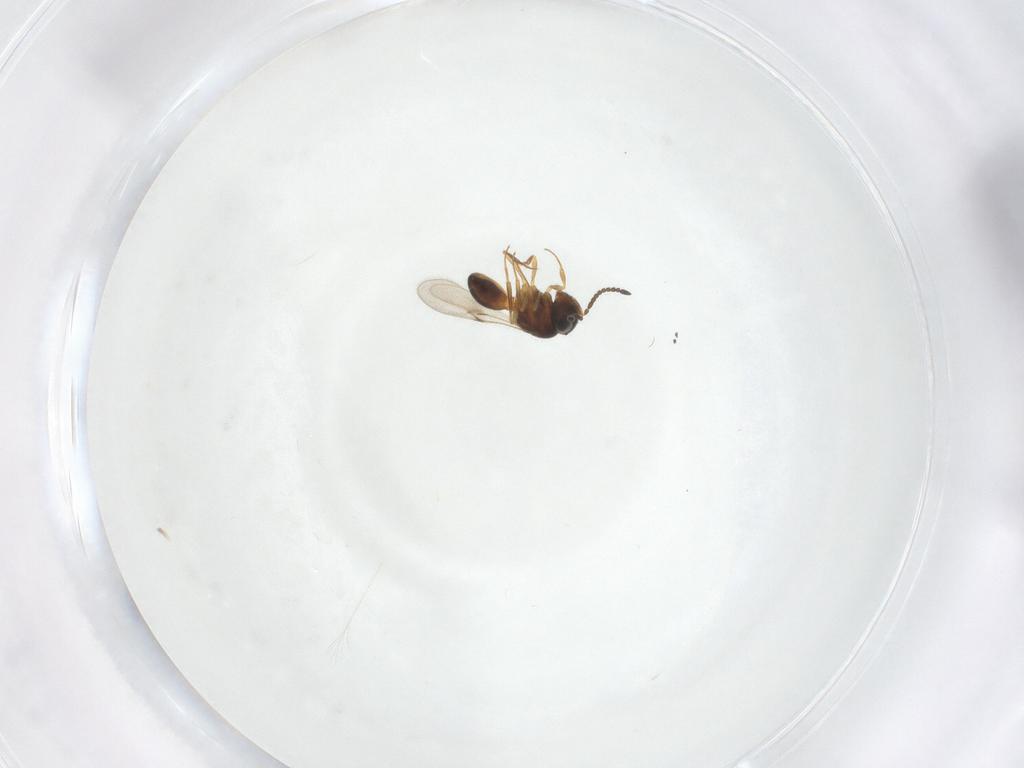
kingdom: Animalia
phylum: Arthropoda
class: Arachnida
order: Araneae
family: Pholcidae
